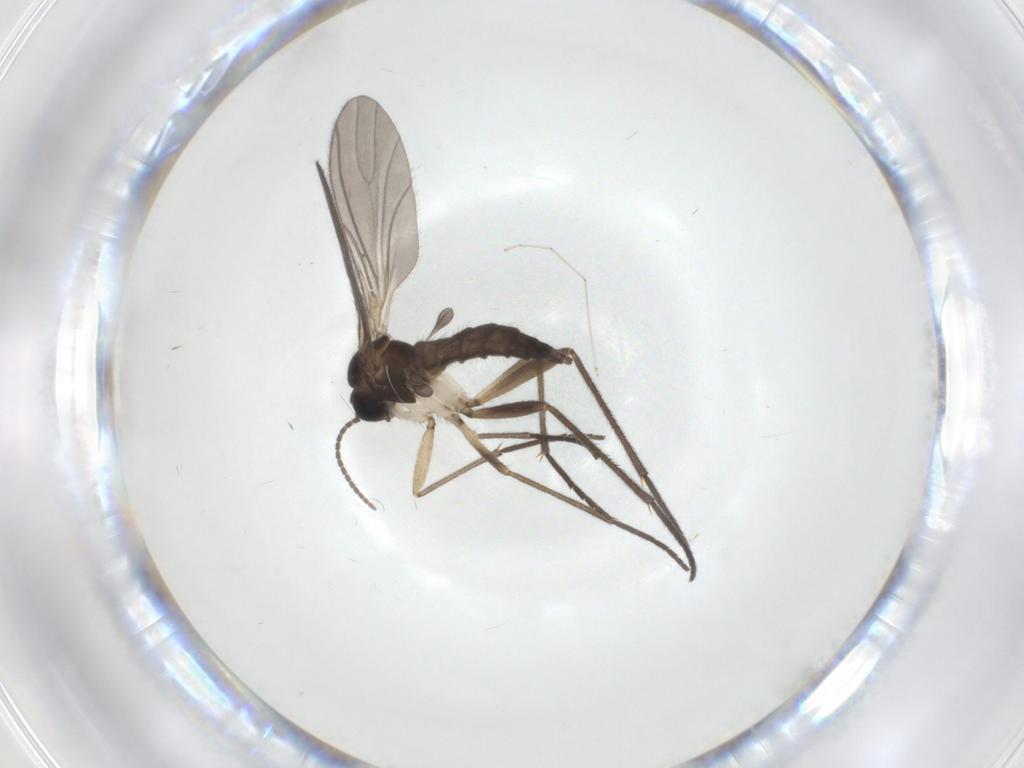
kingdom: Animalia
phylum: Arthropoda
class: Insecta
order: Diptera
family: Sciaridae
